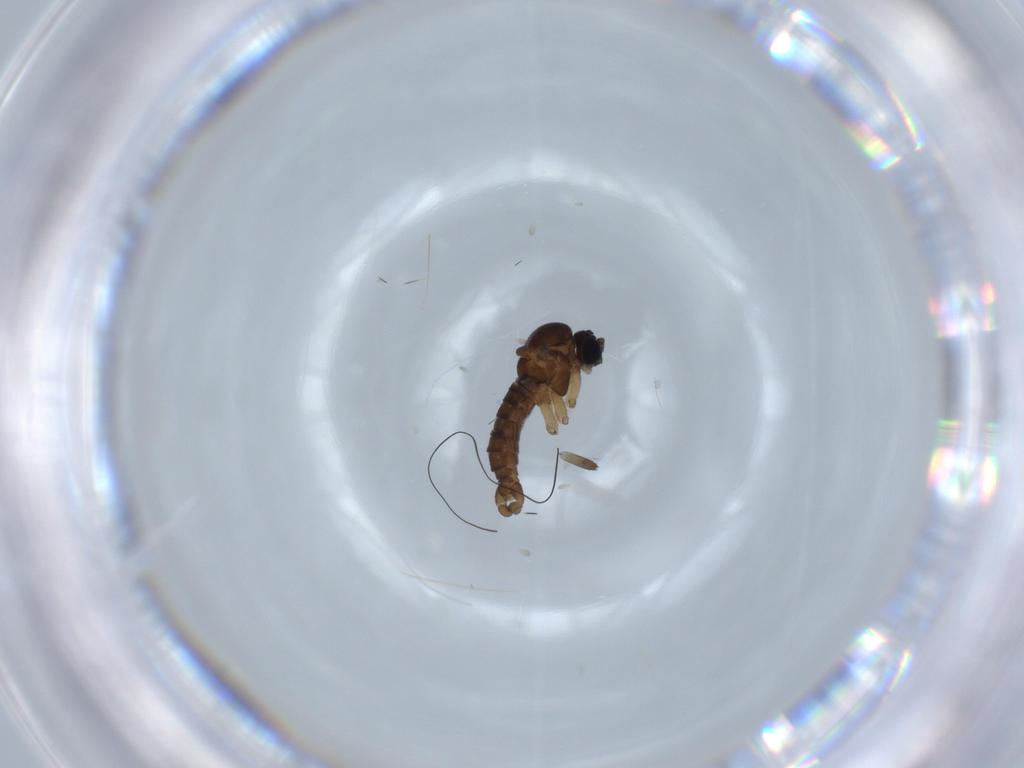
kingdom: Animalia
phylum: Arthropoda
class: Insecta
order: Diptera
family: Sciaridae
